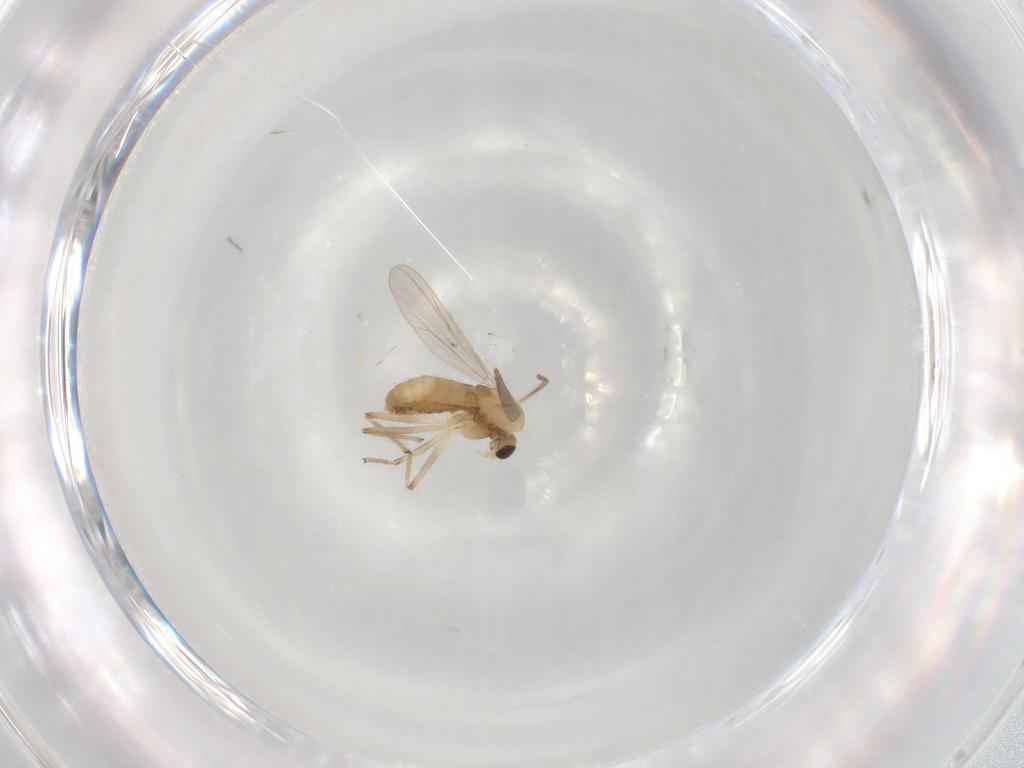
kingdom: Animalia
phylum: Arthropoda
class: Insecta
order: Diptera
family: Chironomidae
